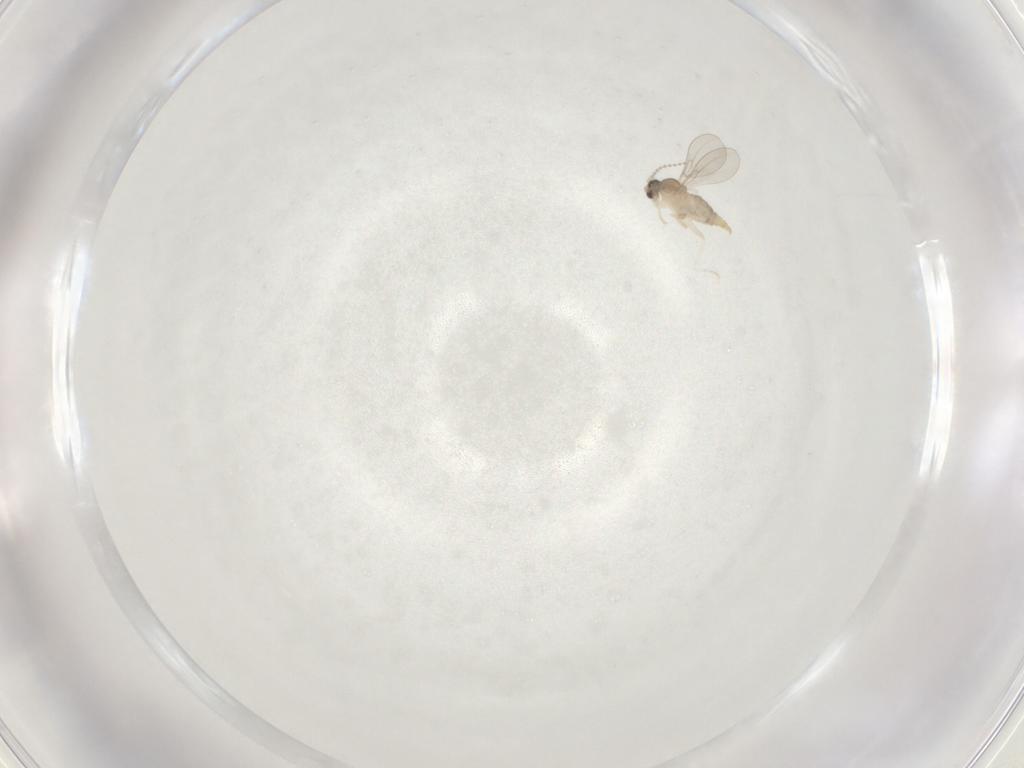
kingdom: Animalia
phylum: Arthropoda
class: Insecta
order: Diptera
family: Cecidomyiidae
